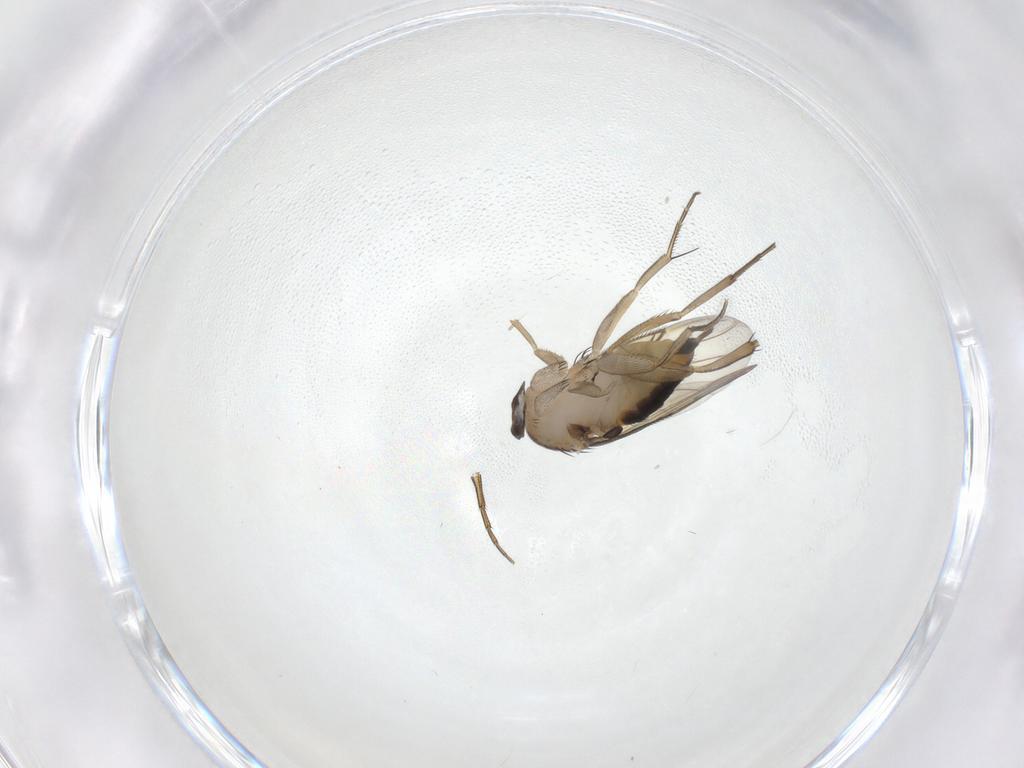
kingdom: Animalia
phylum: Arthropoda
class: Insecta
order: Diptera
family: Phoridae
